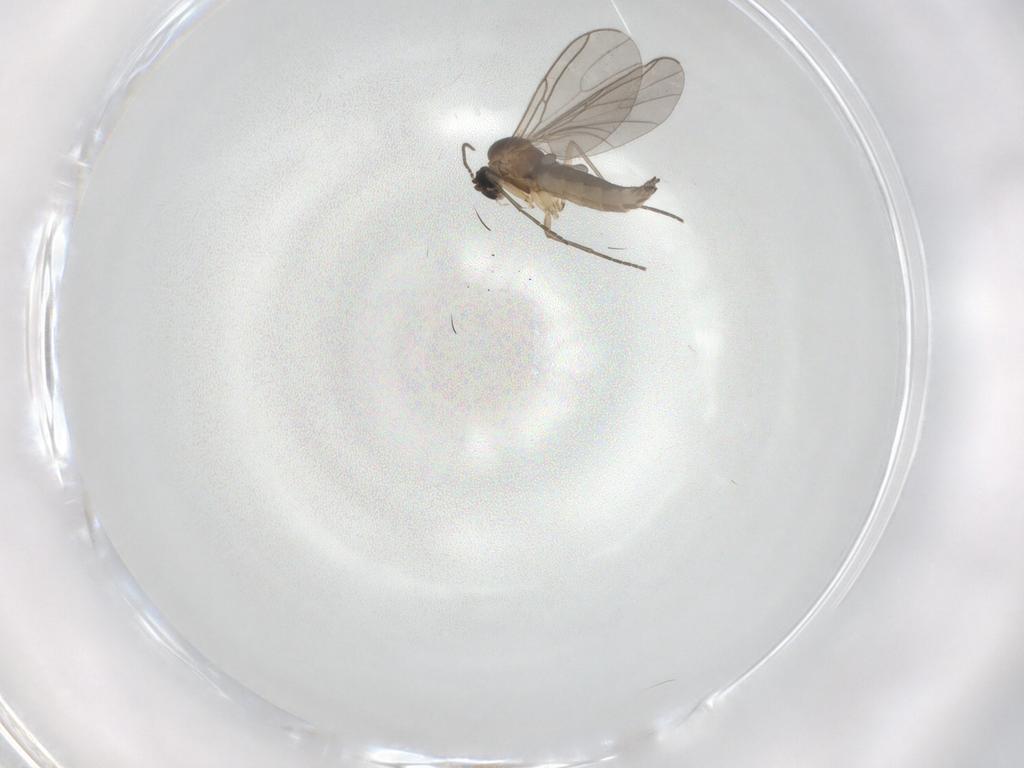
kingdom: Animalia
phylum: Arthropoda
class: Insecta
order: Diptera
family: Sciaridae
